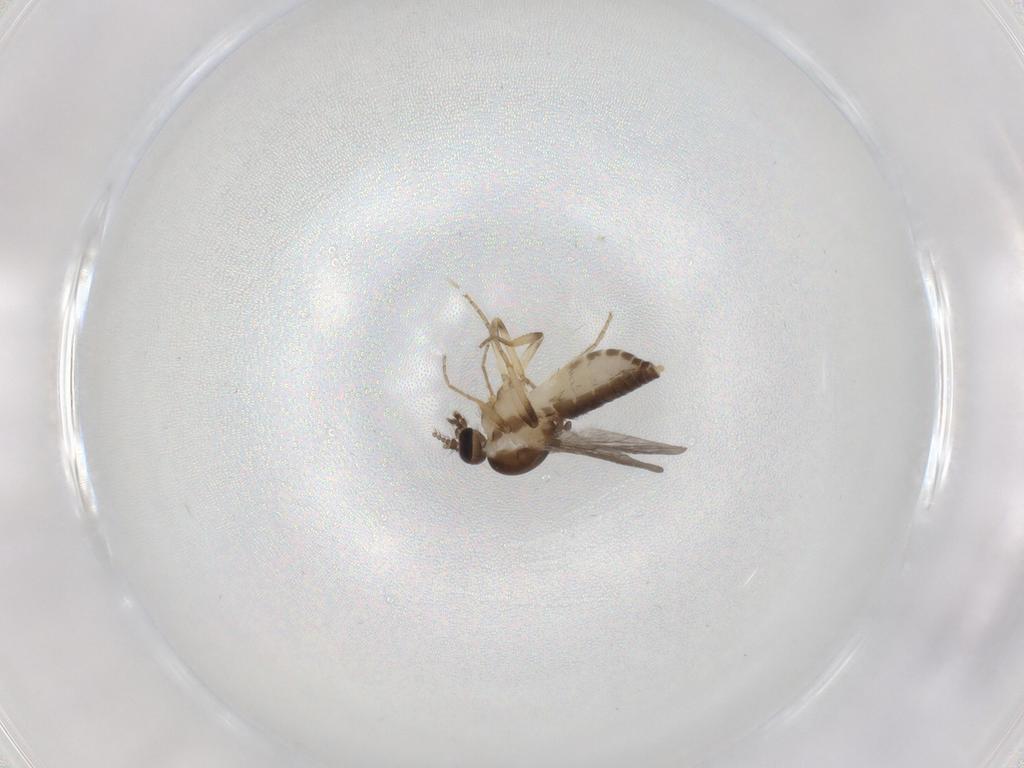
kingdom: Animalia
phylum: Arthropoda
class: Insecta
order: Diptera
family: Ceratopogonidae
